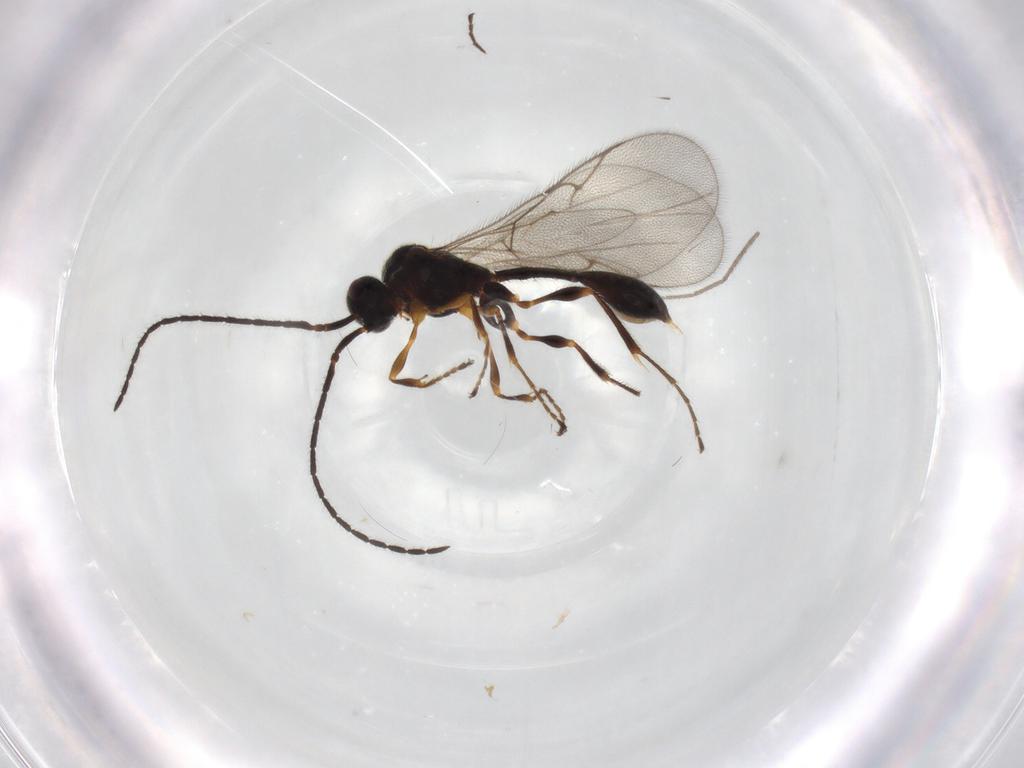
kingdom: Animalia
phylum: Arthropoda
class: Insecta
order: Hymenoptera
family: Diapriidae
